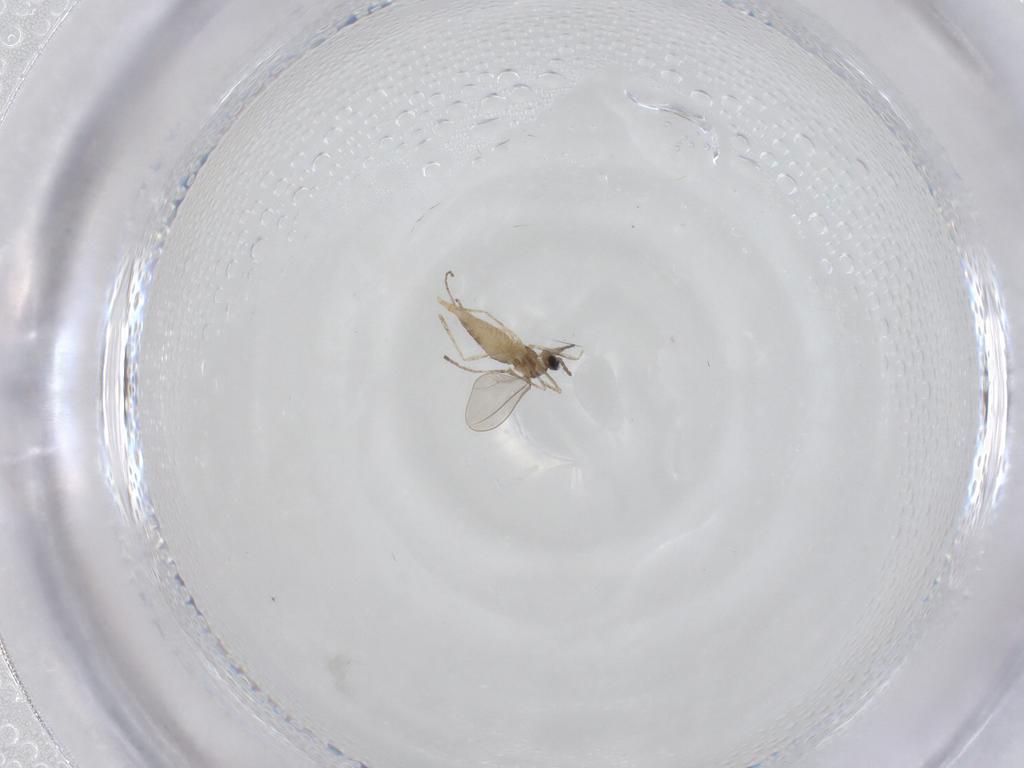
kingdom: Animalia
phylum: Arthropoda
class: Insecta
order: Diptera
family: Cecidomyiidae
